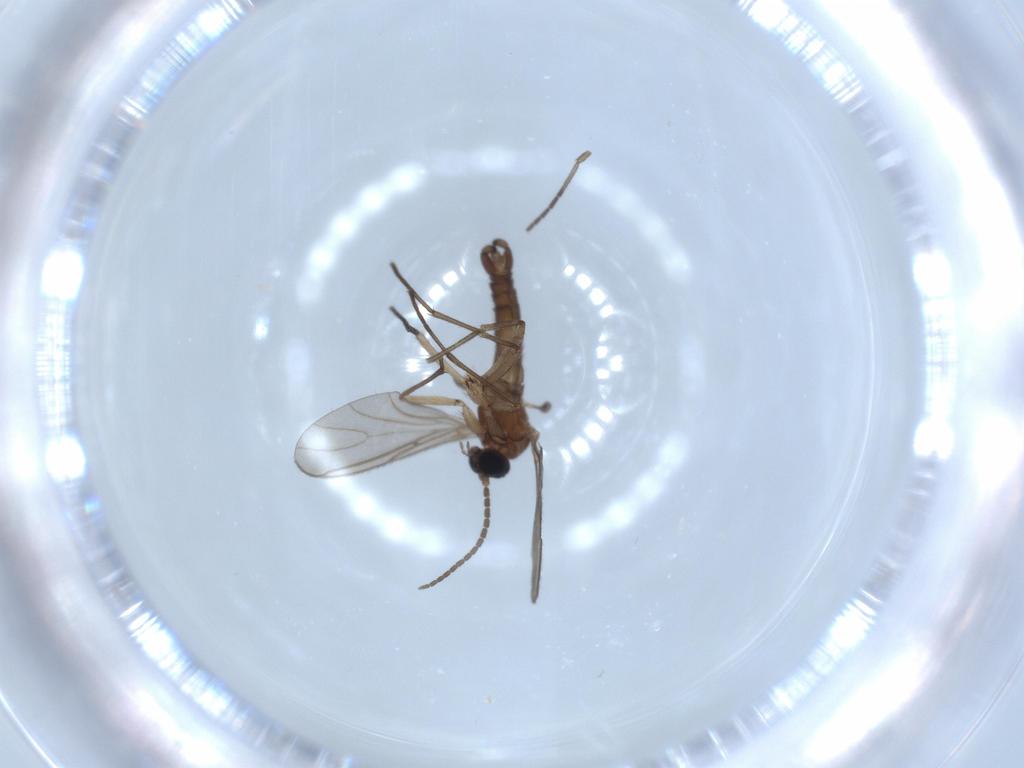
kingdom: Animalia
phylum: Arthropoda
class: Insecta
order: Diptera
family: Sciaridae
